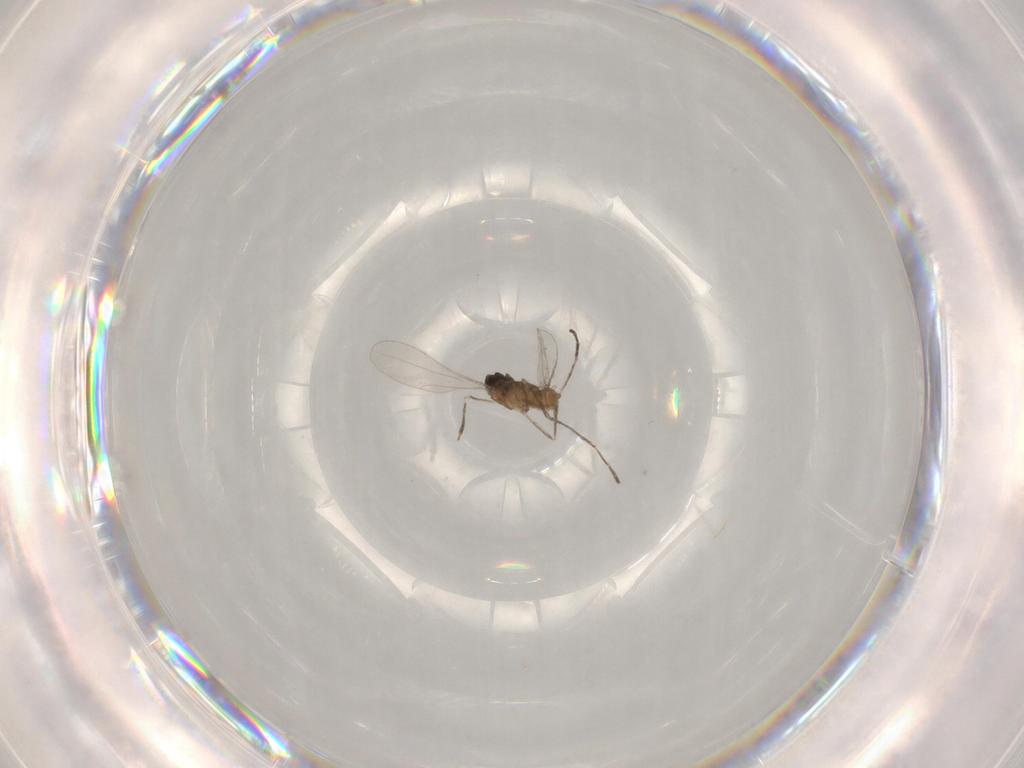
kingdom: Animalia
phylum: Arthropoda
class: Insecta
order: Diptera
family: Cecidomyiidae
